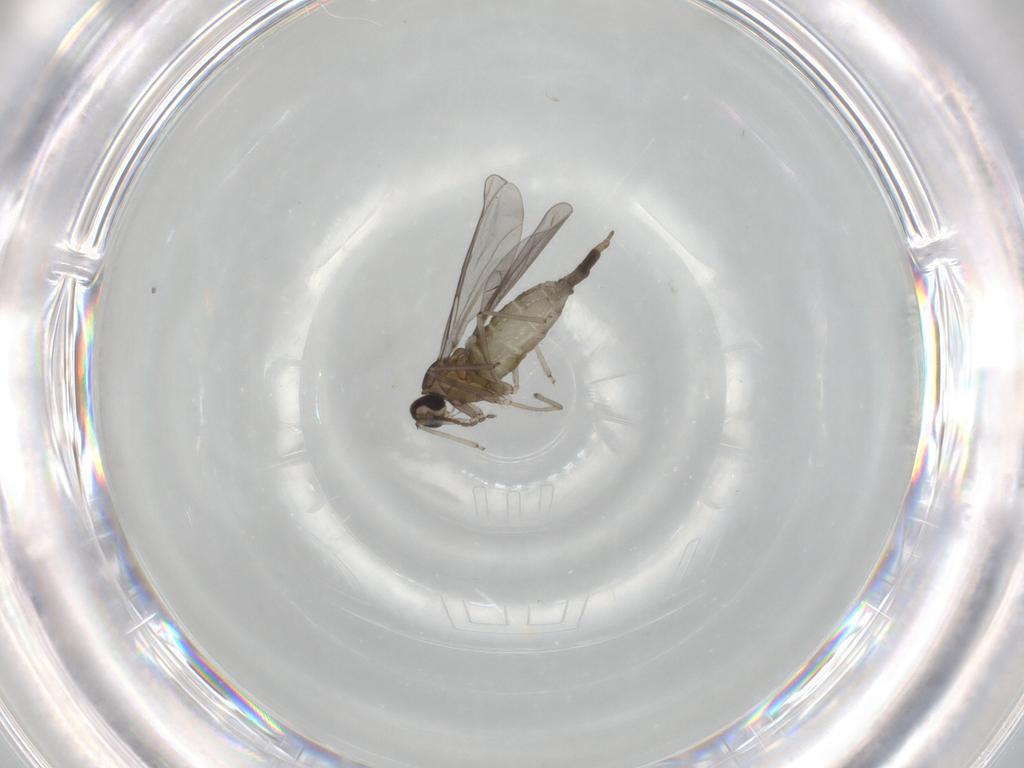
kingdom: Animalia
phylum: Arthropoda
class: Insecta
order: Diptera
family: Cecidomyiidae
